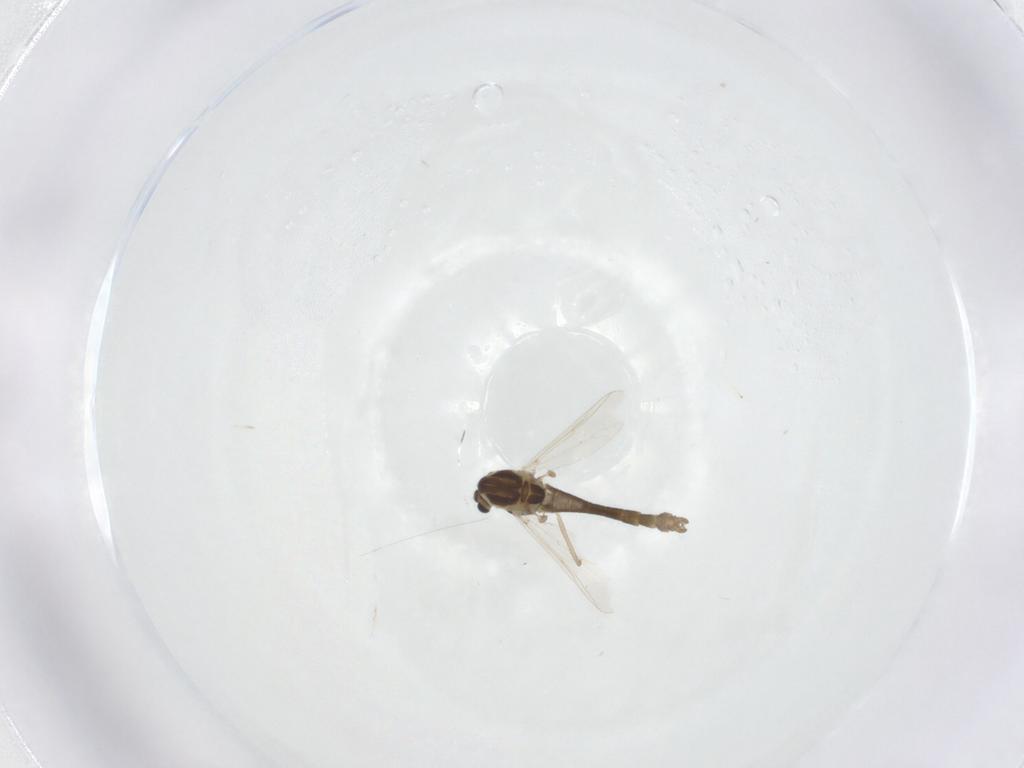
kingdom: Animalia
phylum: Arthropoda
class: Insecta
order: Diptera
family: Chironomidae
